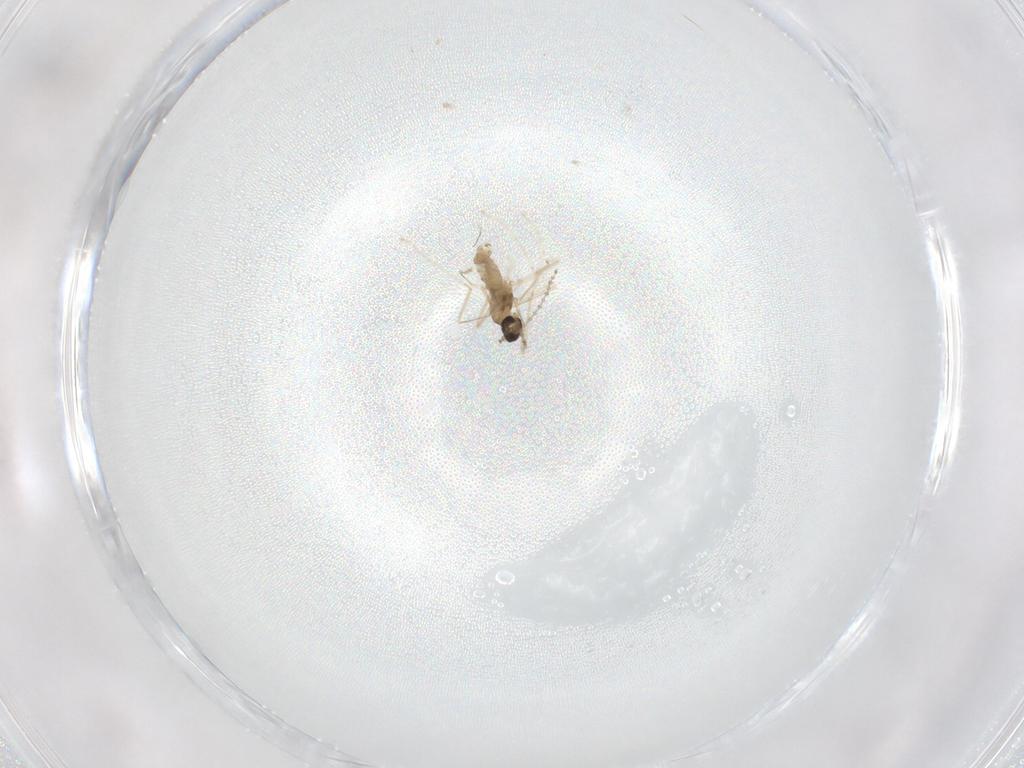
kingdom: Animalia
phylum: Arthropoda
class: Insecta
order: Diptera
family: Cecidomyiidae
